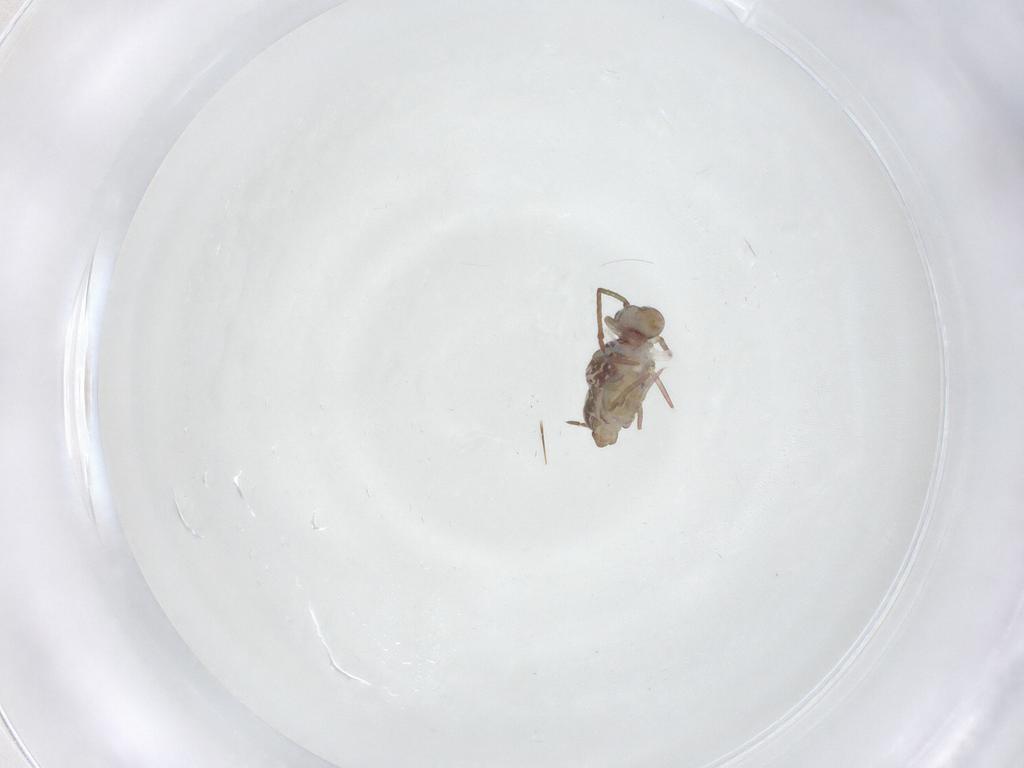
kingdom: Animalia
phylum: Arthropoda
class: Collembola
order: Symphypleona
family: Dicyrtomidae
